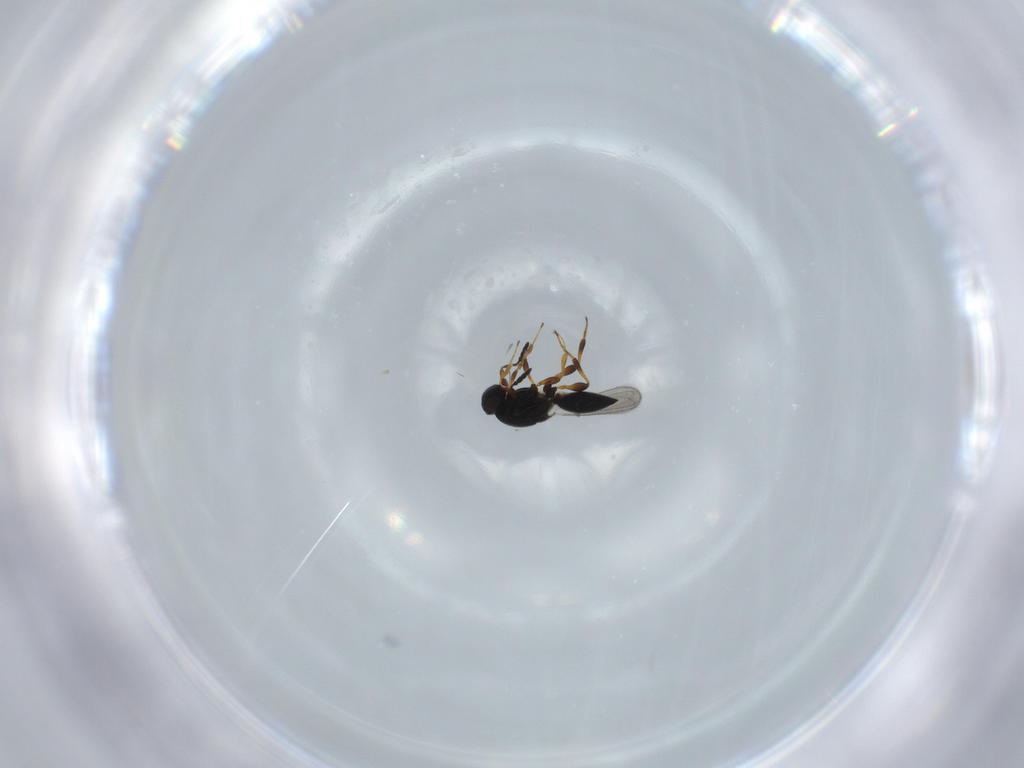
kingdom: Animalia
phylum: Arthropoda
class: Insecta
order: Hymenoptera
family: Platygastridae
